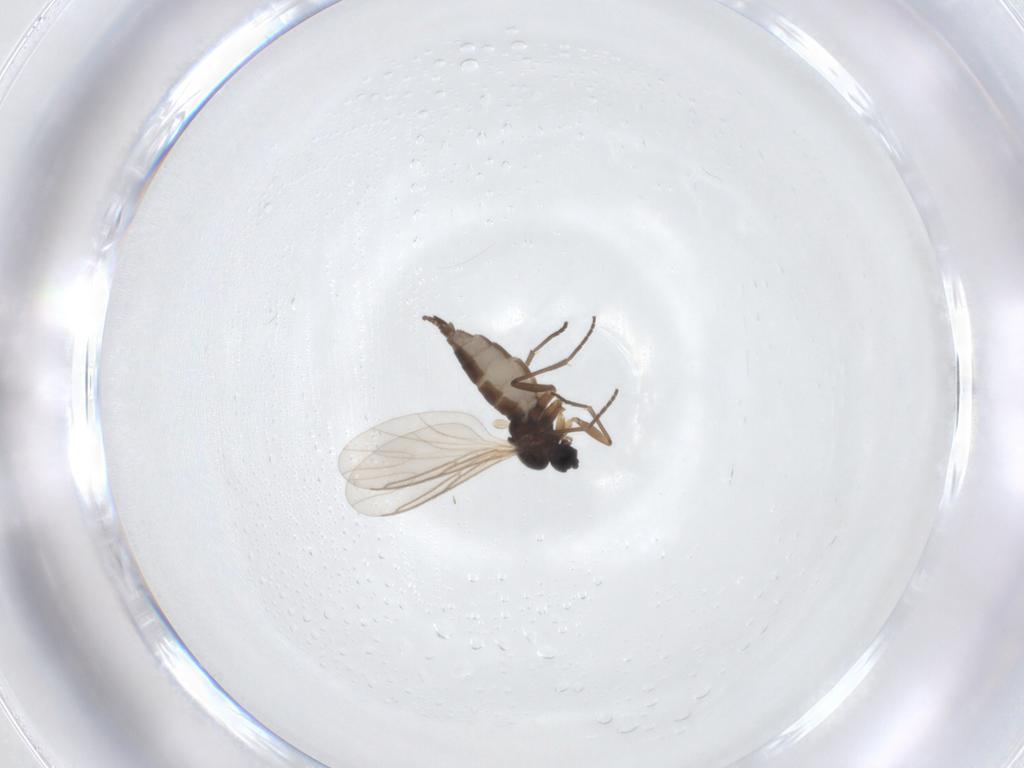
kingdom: Animalia
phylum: Arthropoda
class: Insecta
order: Diptera
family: Sciaridae
